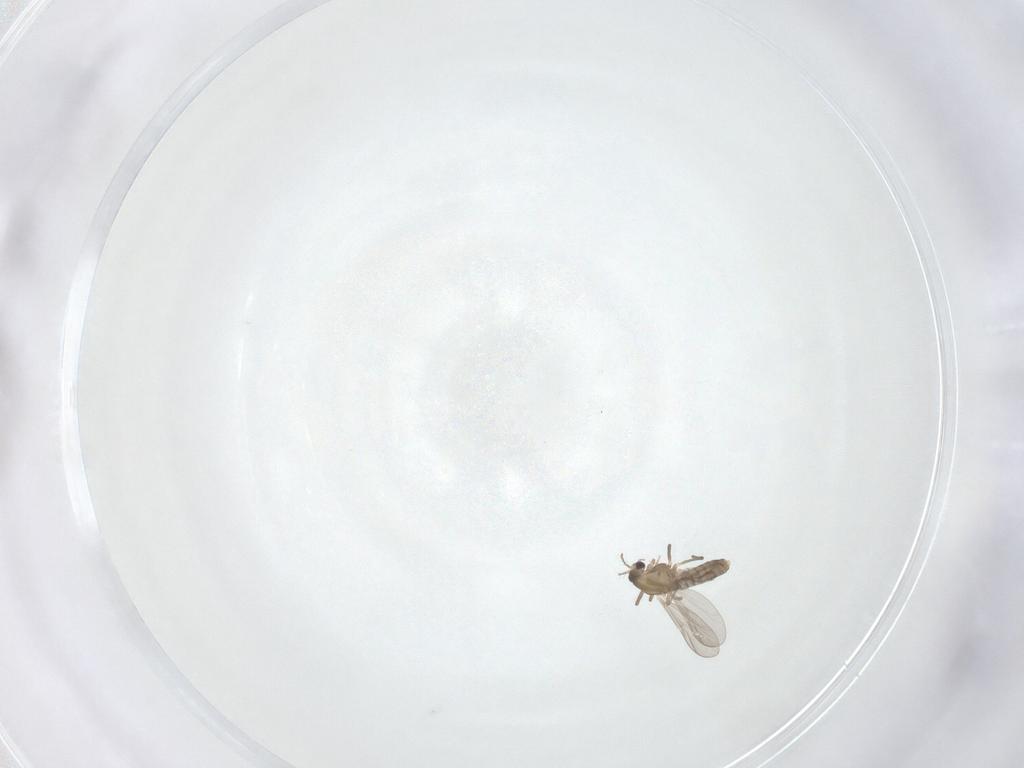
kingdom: Animalia
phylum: Arthropoda
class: Insecta
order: Diptera
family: Chironomidae
